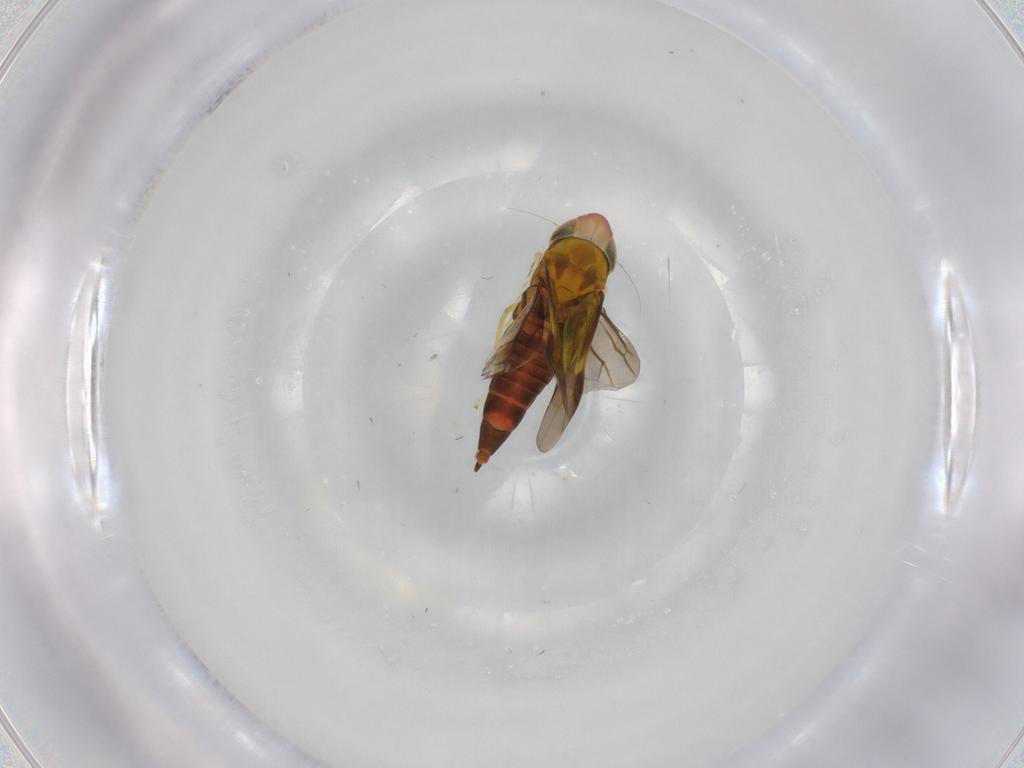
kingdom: Animalia
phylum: Arthropoda
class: Insecta
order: Hemiptera
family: Cicadellidae
